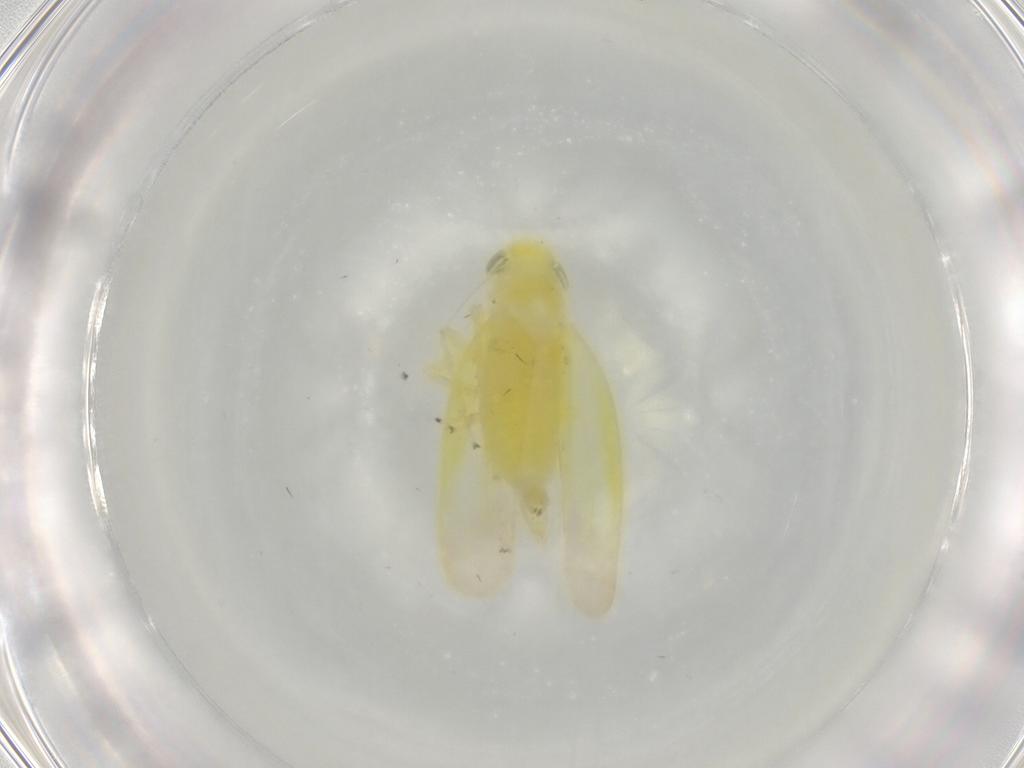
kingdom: Animalia
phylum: Arthropoda
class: Insecta
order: Hemiptera
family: Cicadellidae
